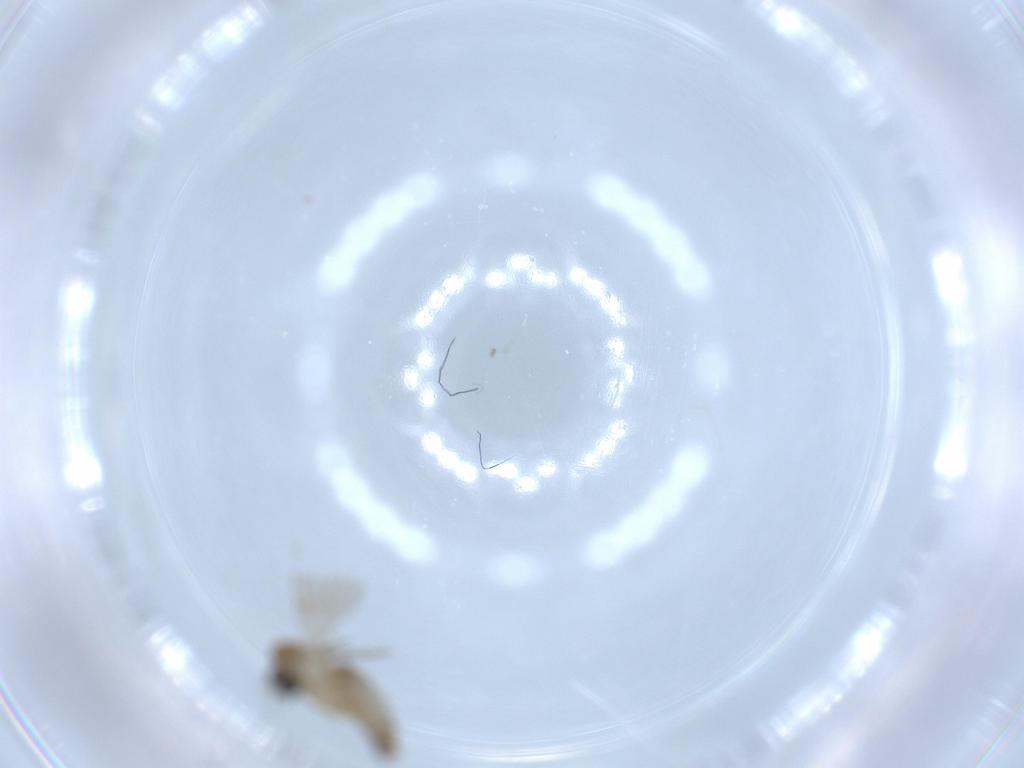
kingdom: Animalia
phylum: Arthropoda
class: Insecta
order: Diptera
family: Psychodidae
